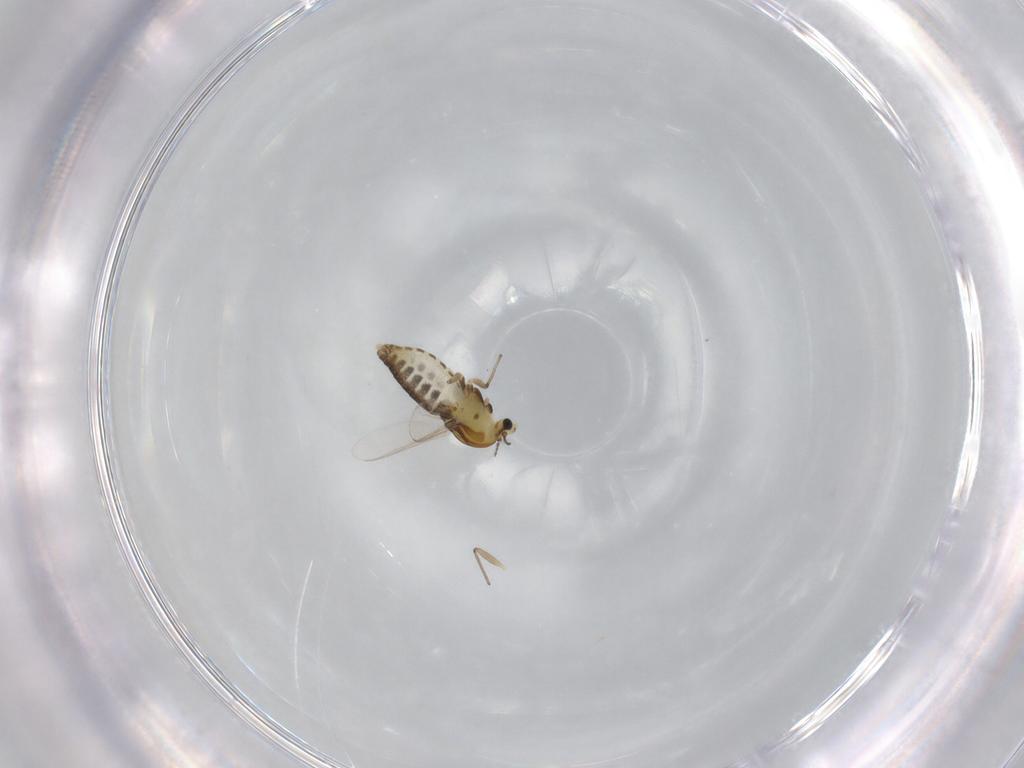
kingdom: Animalia
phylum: Arthropoda
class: Insecta
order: Diptera
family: Chironomidae
